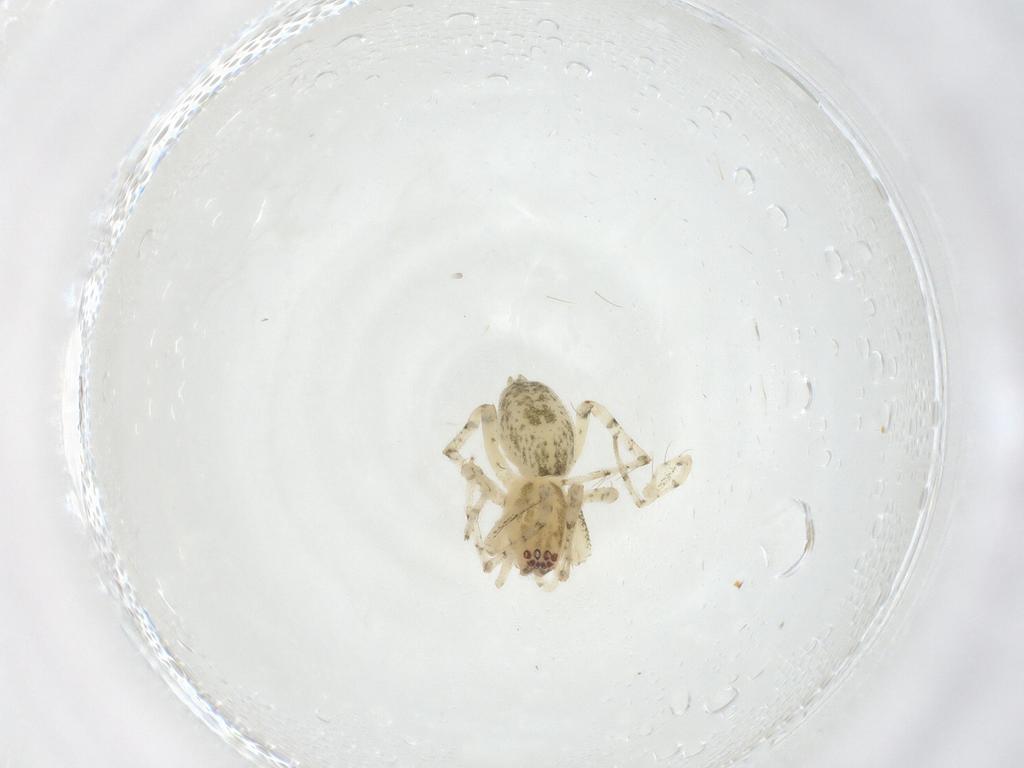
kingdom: Animalia
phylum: Arthropoda
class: Arachnida
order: Araneae
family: Anyphaenidae
